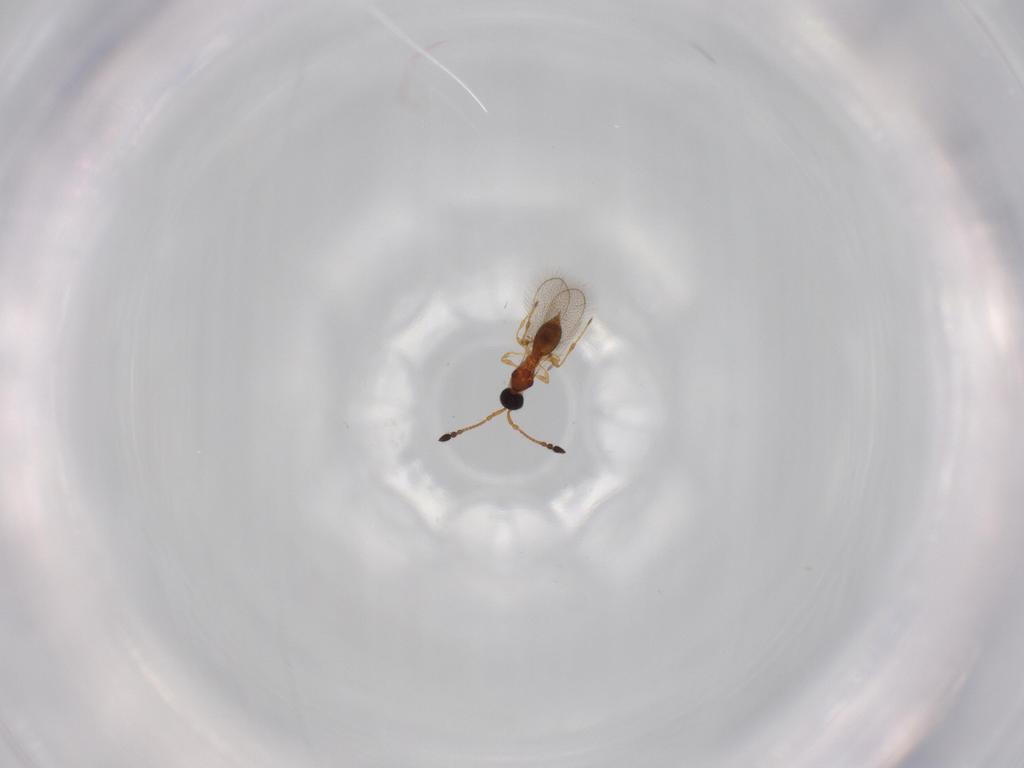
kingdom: Animalia
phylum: Arthropoda
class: Insecta
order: Hymenoptera
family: Diapriidae
